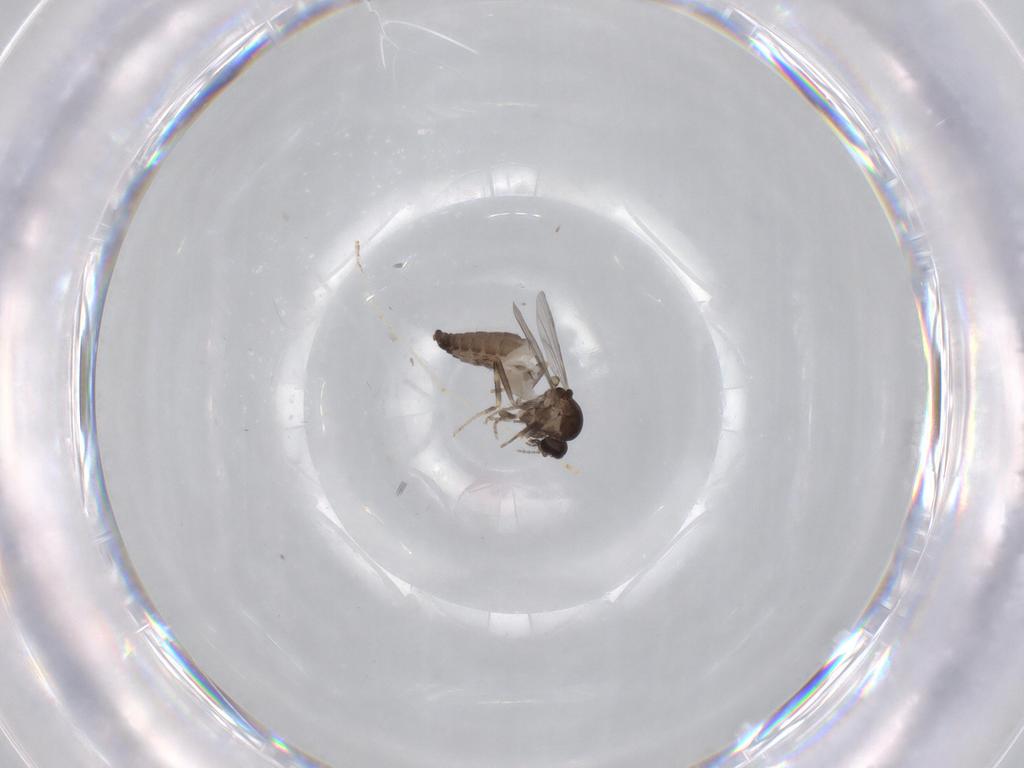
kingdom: Animalia
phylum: Arthropoda
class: Insecta
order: Diptera
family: Ceratopogonidae
